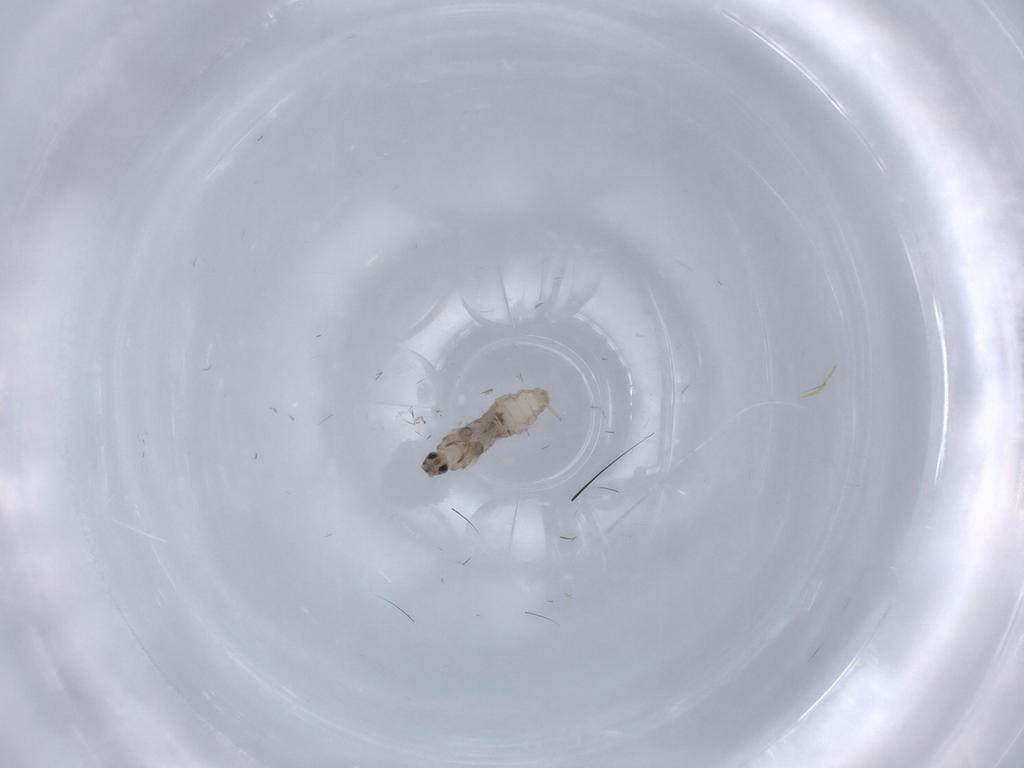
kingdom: Animalia
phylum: Arthropoda
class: Insecta
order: Diptera
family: Cecidomyiidae
